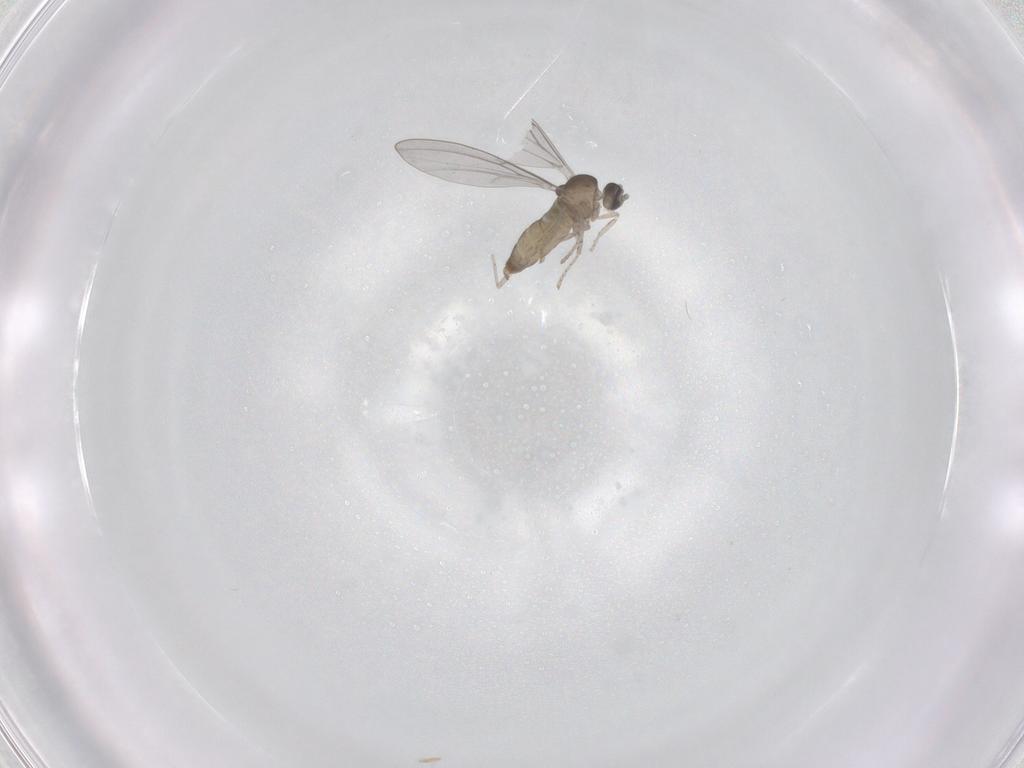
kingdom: Animalia
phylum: Arthropoda
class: Insecta
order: Diptera
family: Cecidomyiidae
